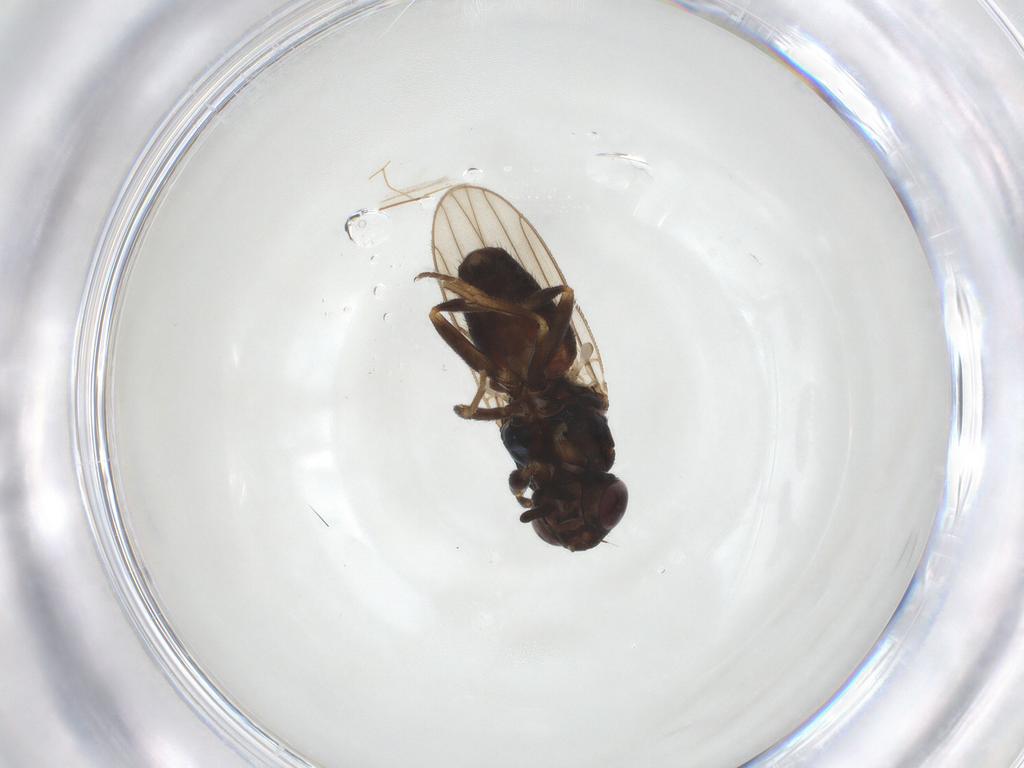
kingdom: Animalia
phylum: Arthropoda
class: Insecta
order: Diptera
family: Chloropidae
